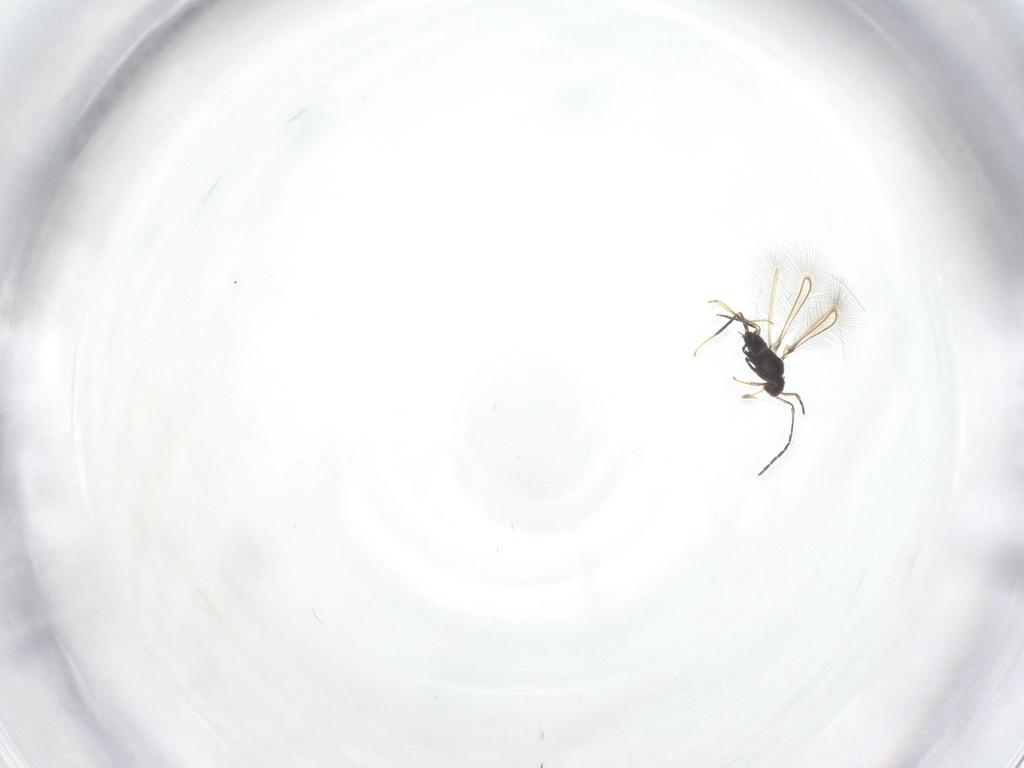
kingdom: Animalia
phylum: Arthropoda
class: Insecta
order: Hymenoptera
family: Mymaridae
